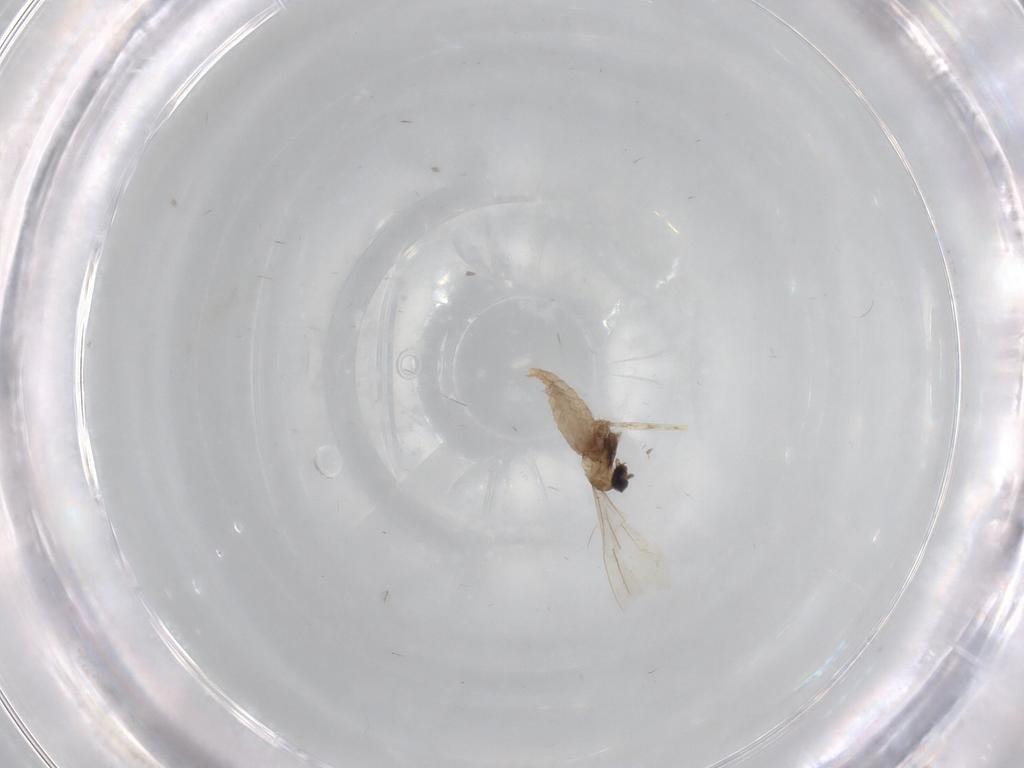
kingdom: Animalia
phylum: Arthropoda
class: Insecta
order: Diptera
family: Cecidomyiidae
